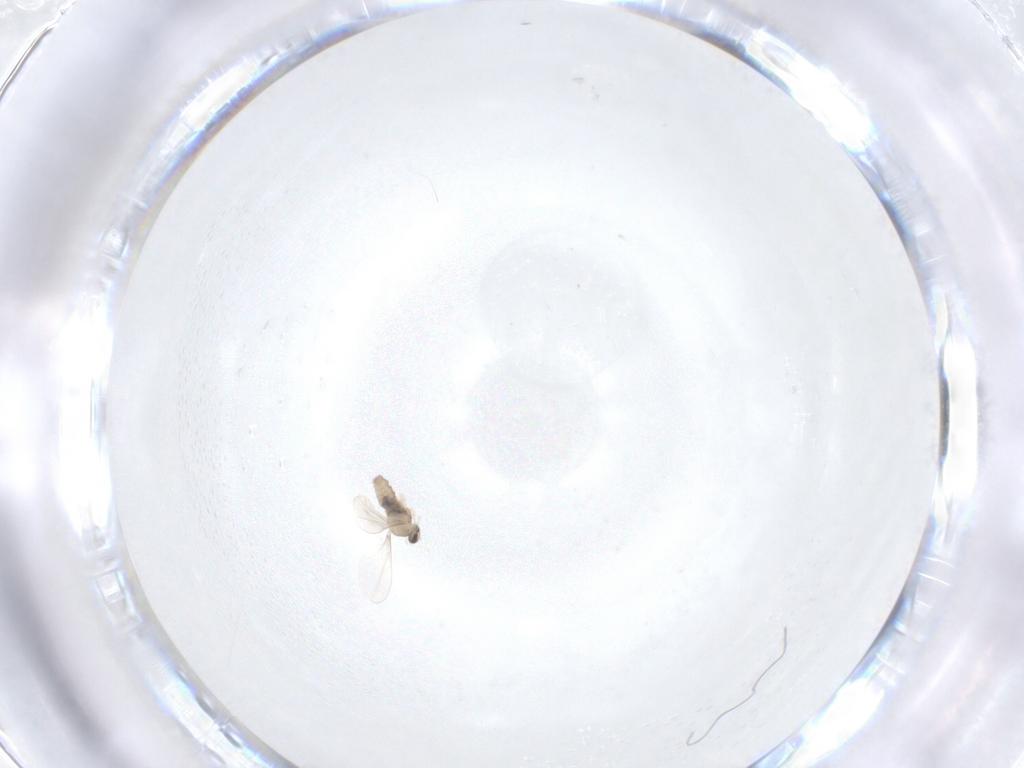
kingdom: Animalia
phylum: Arthropoda
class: Insecta
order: Diptera
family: Cecidomyiidae
